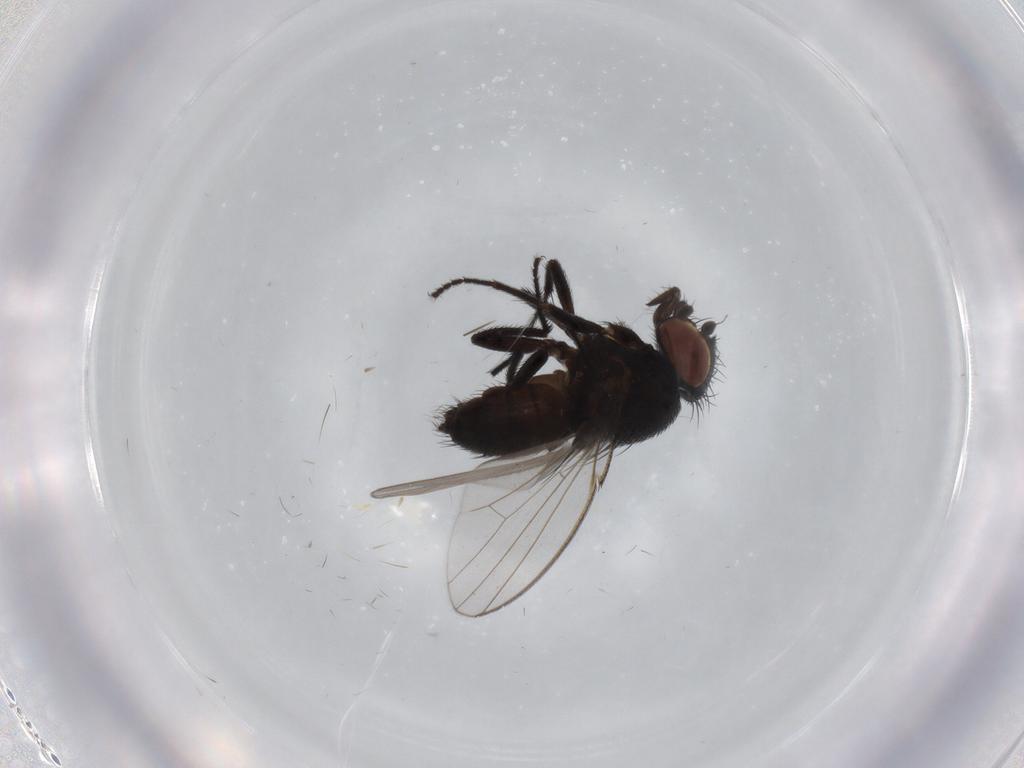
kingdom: Animalia
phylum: Arthropoda
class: Insecta
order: Diptera
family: Milichiidae
